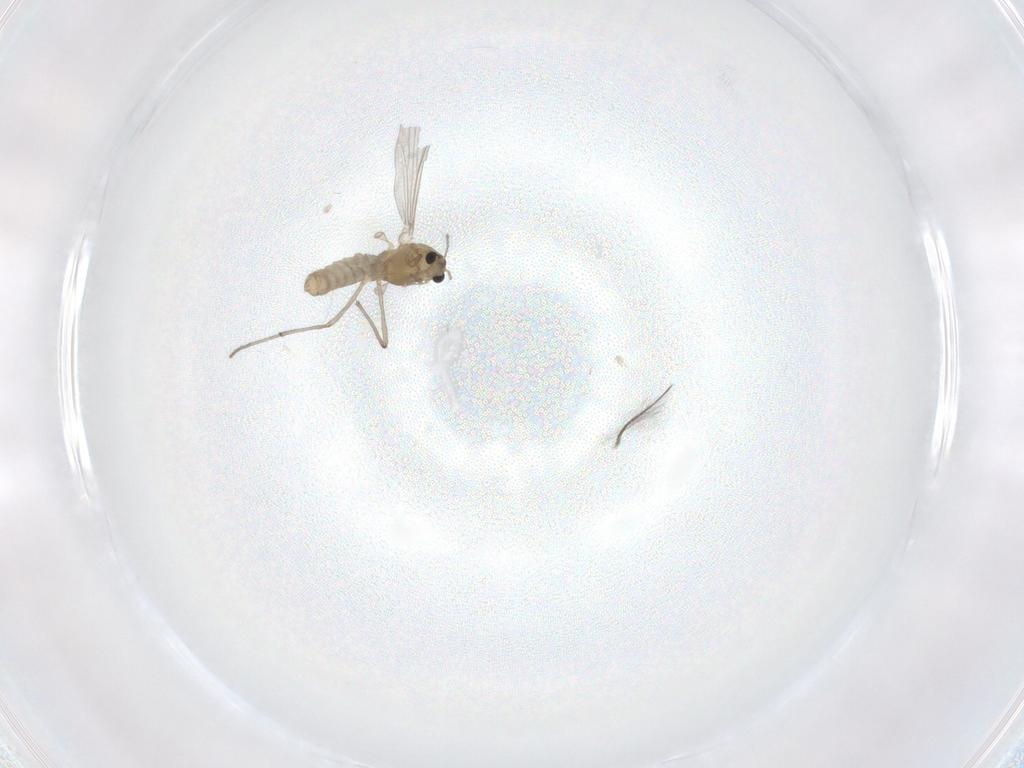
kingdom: Animalia
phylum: Arthropoda
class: Insecta
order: Diptera
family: Chironomidae
